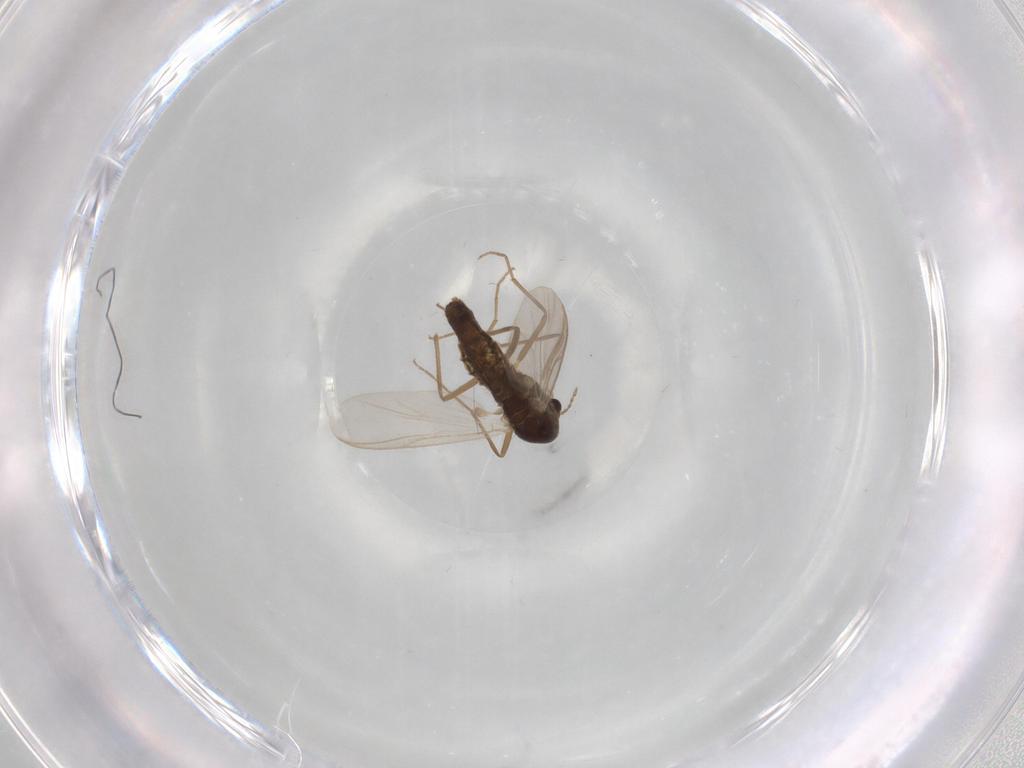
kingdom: Animalia
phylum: Arthropoda
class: Insecta
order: Diptera
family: Chironomidae
